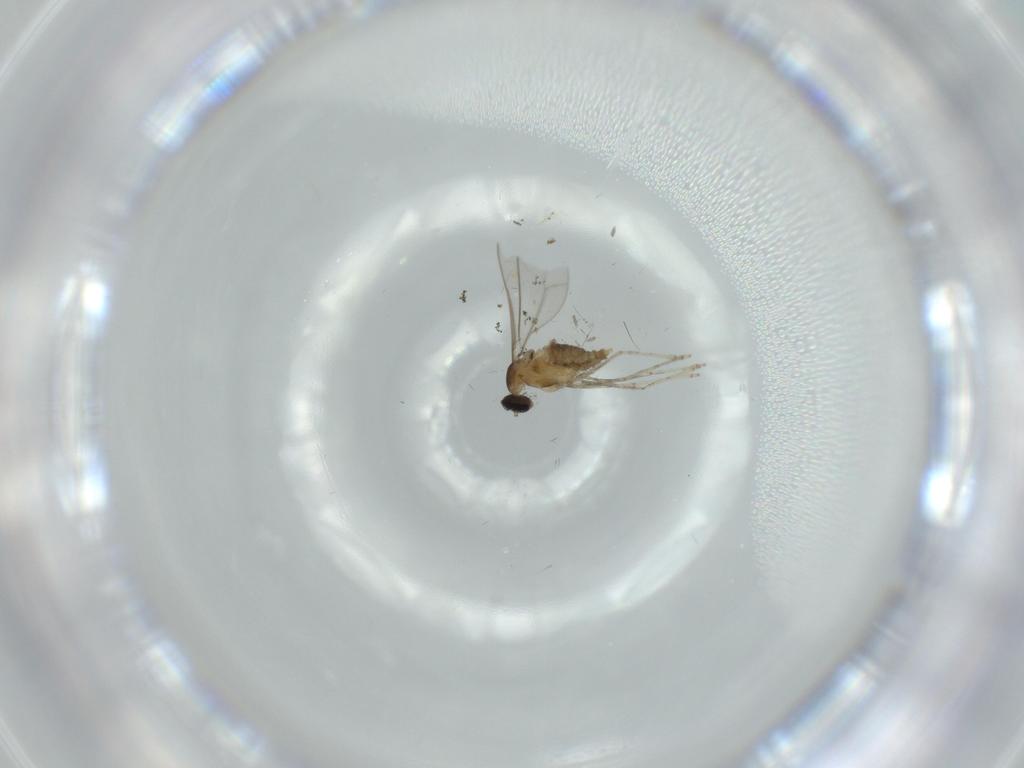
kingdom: Animalia
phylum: Arthropoda
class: Insecta
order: Diptera
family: Cecidomyiidae
